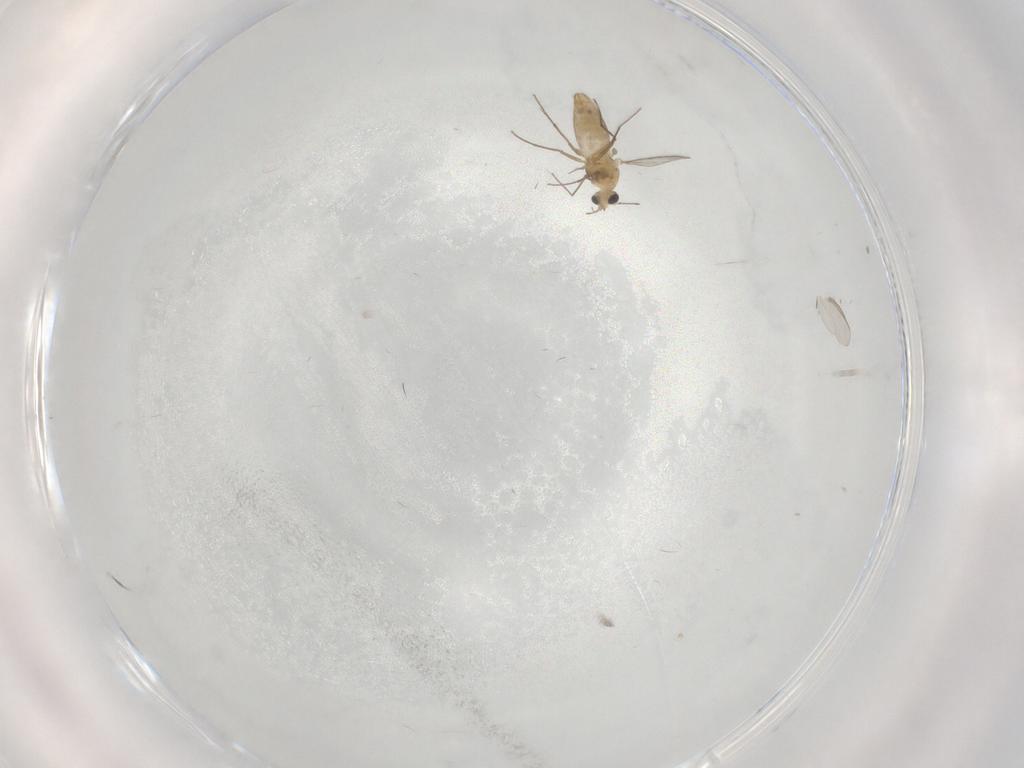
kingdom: Animalia
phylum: Arthropoda
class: Insecta
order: Diptera
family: Chironomidae
